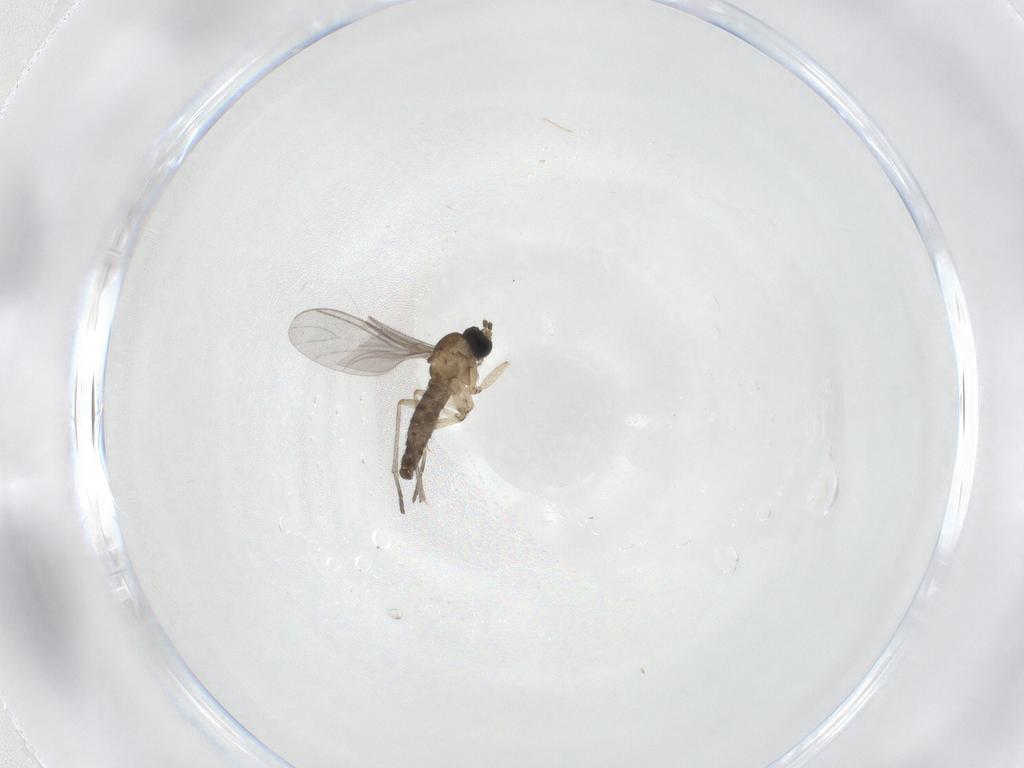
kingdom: Animalia
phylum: Arthropoda
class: Insecta
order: Diptera
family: Sciaridae
